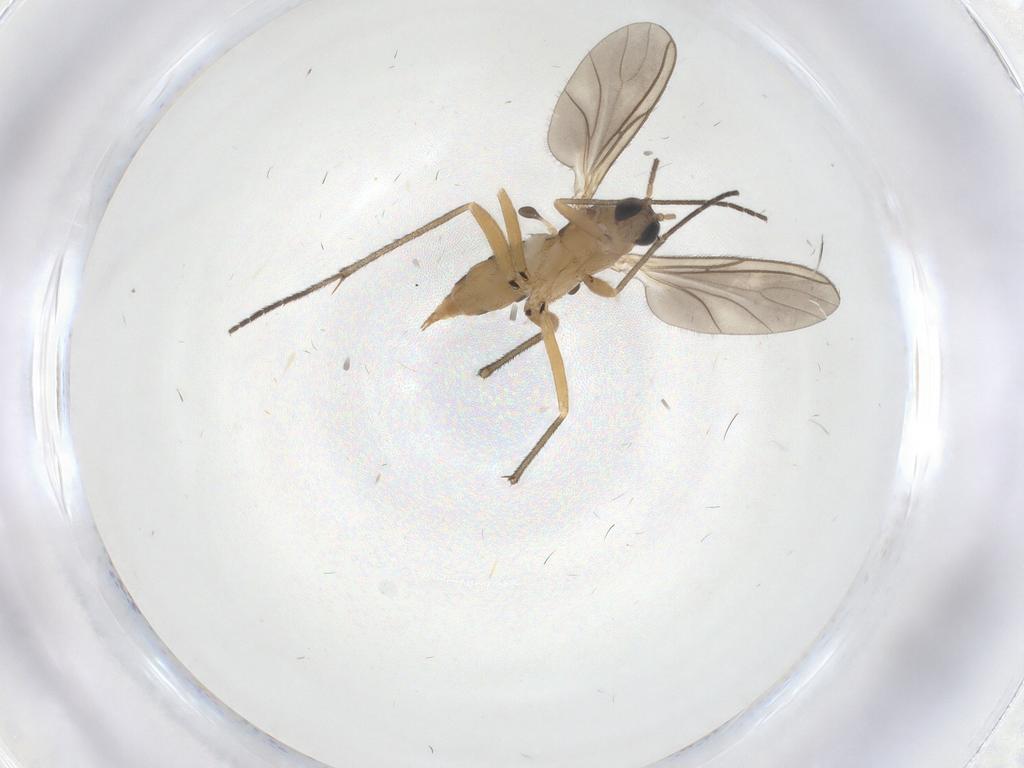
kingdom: Animalia
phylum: Arthropoda
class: Insecta
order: Diptera
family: Sciaridae
